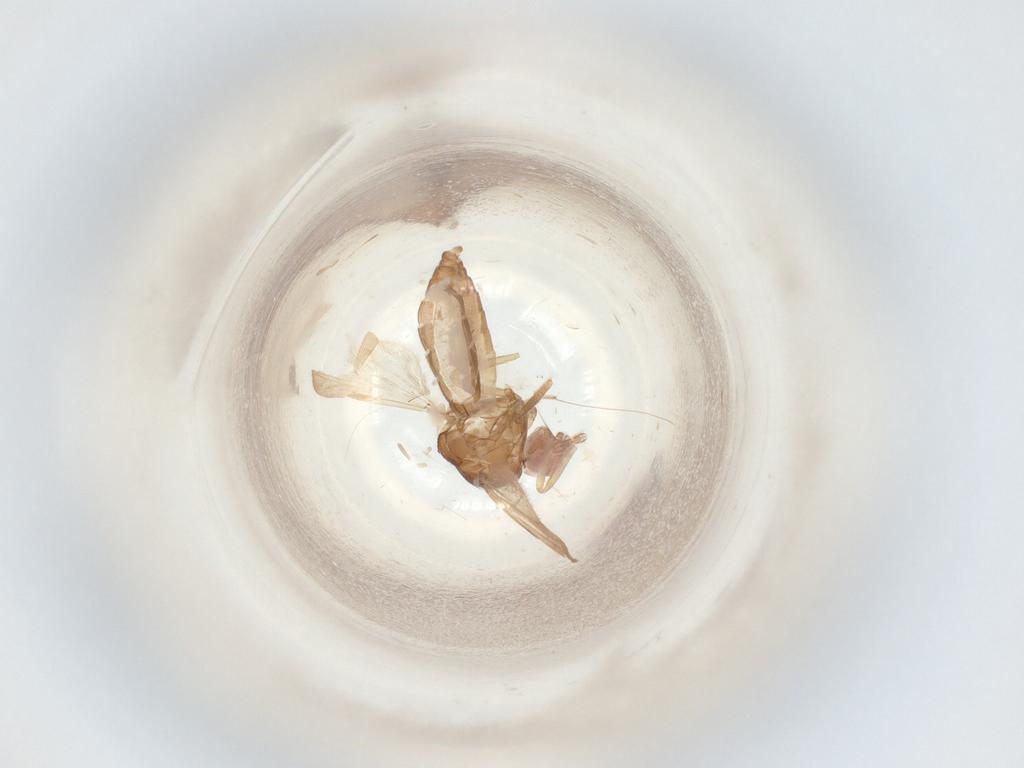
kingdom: Animalia
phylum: Arthropoda
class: Insecta
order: Diptera
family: Ceratopogonidae
